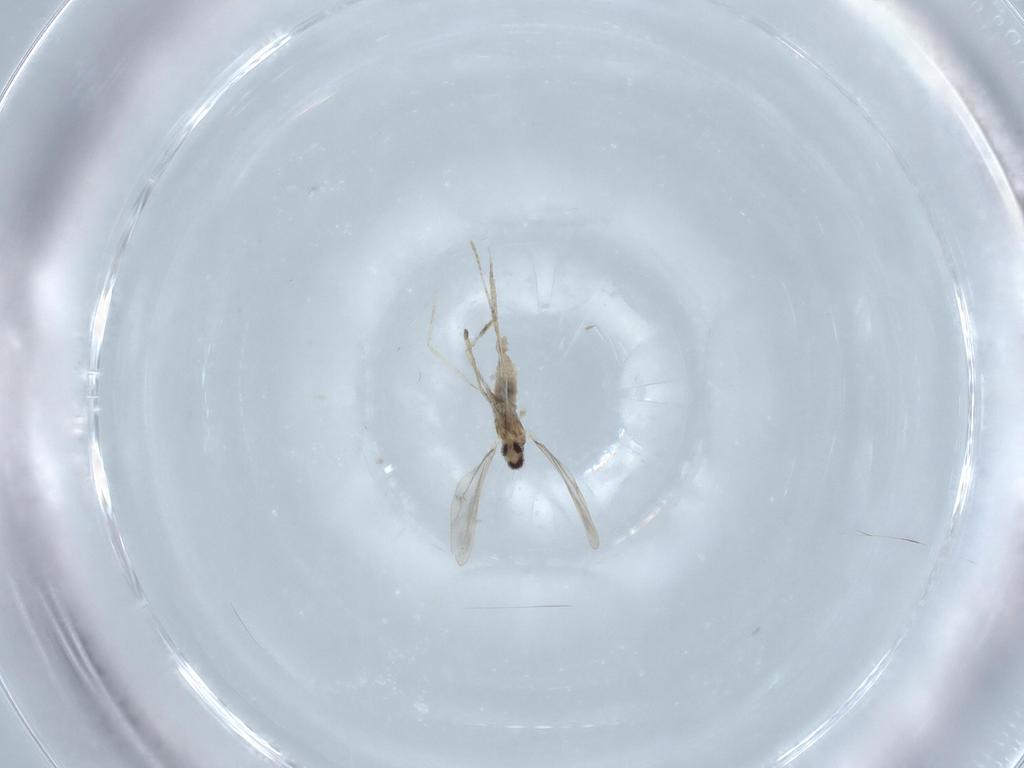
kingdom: Animalia
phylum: Arthropoda
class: Insecta
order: Diptera
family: Cecidomyiidae
